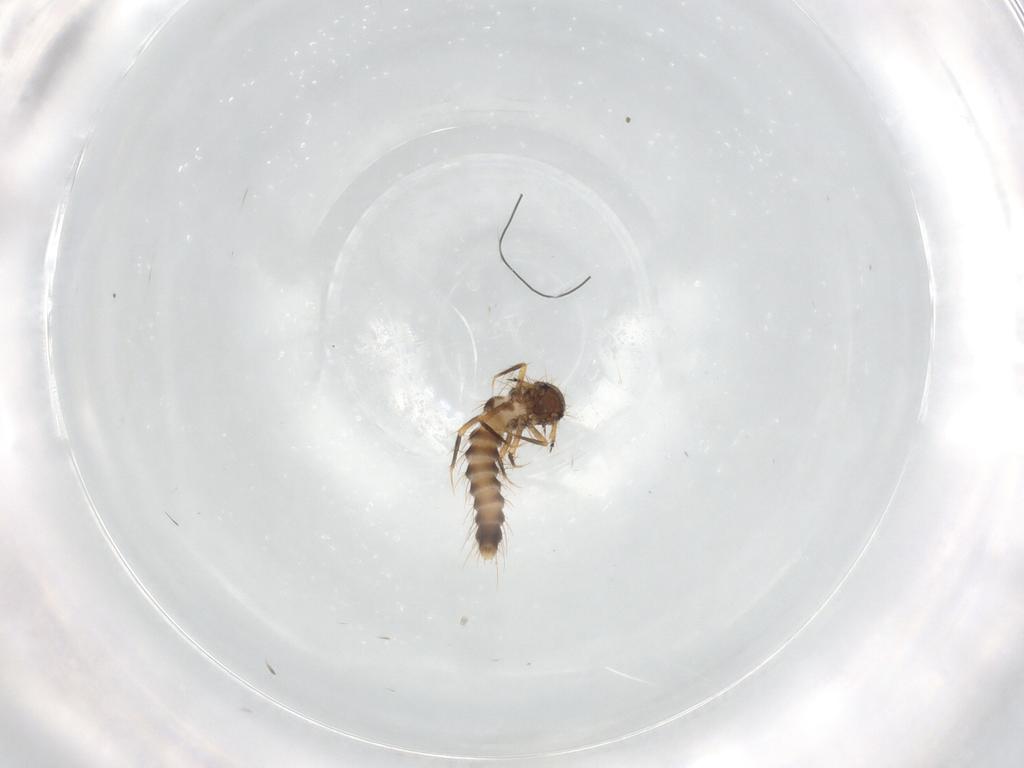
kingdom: Animalia
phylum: Arthropoda
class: Insecta
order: Coleoptera
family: Staphylinidae
